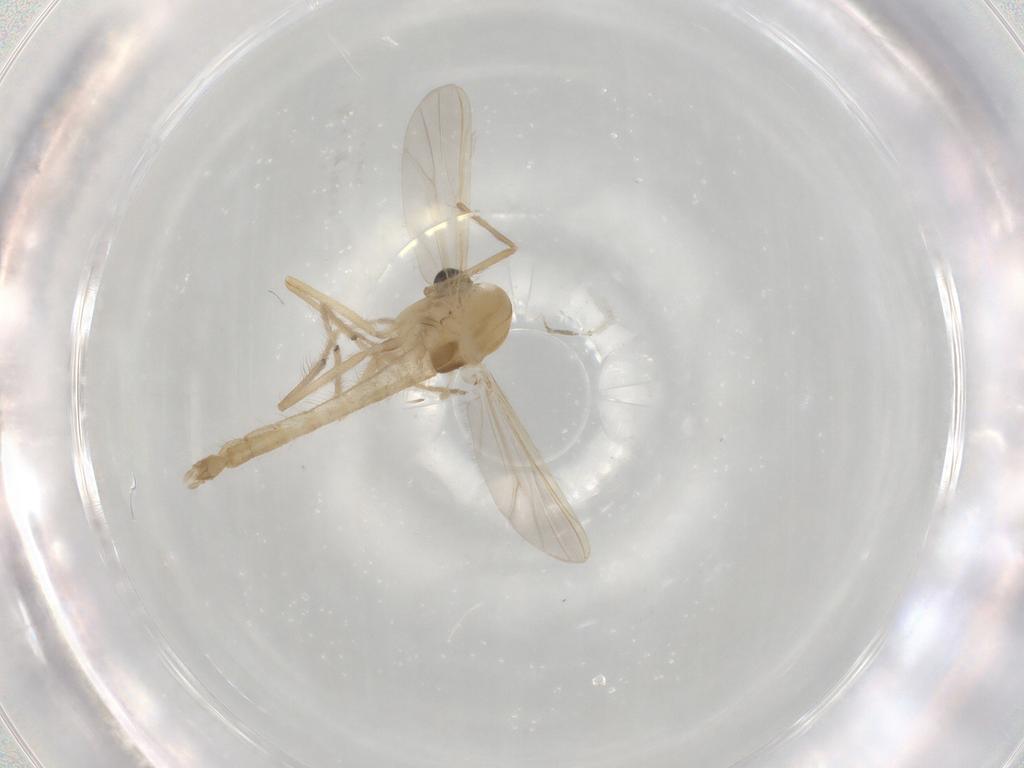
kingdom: Animalia
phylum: Arthropoda
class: Insecta
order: Diptera
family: Chironomidae
